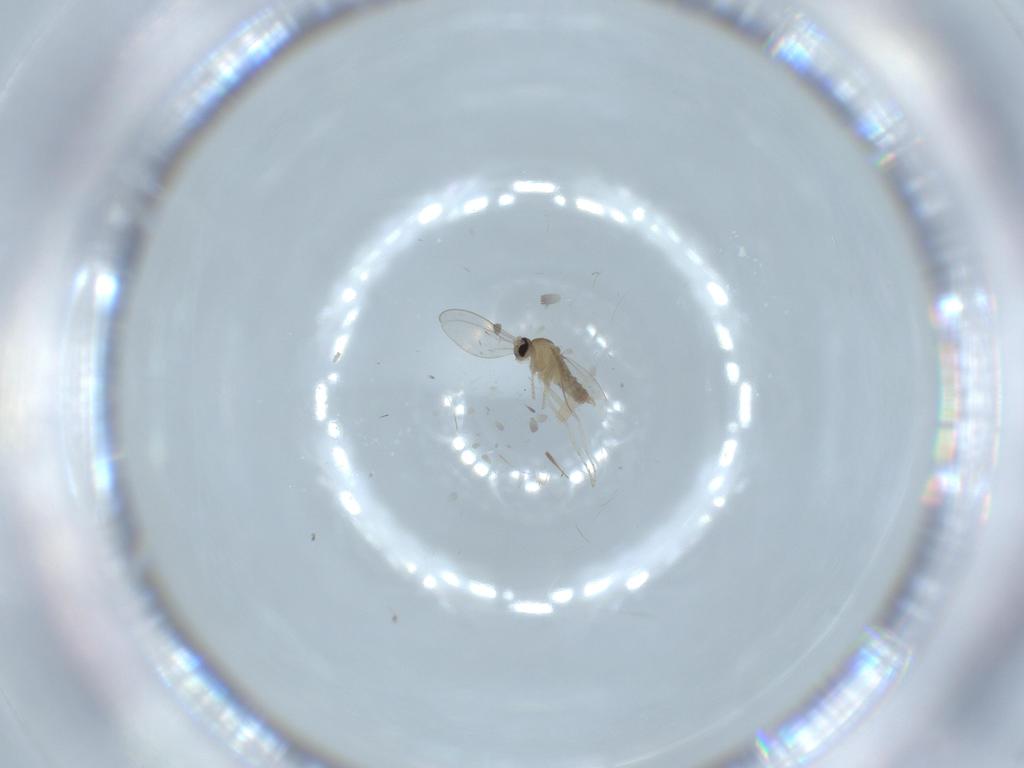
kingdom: Animalia
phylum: Arthropoda
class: Insecta
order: Diptera
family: Cecidomyiidae
